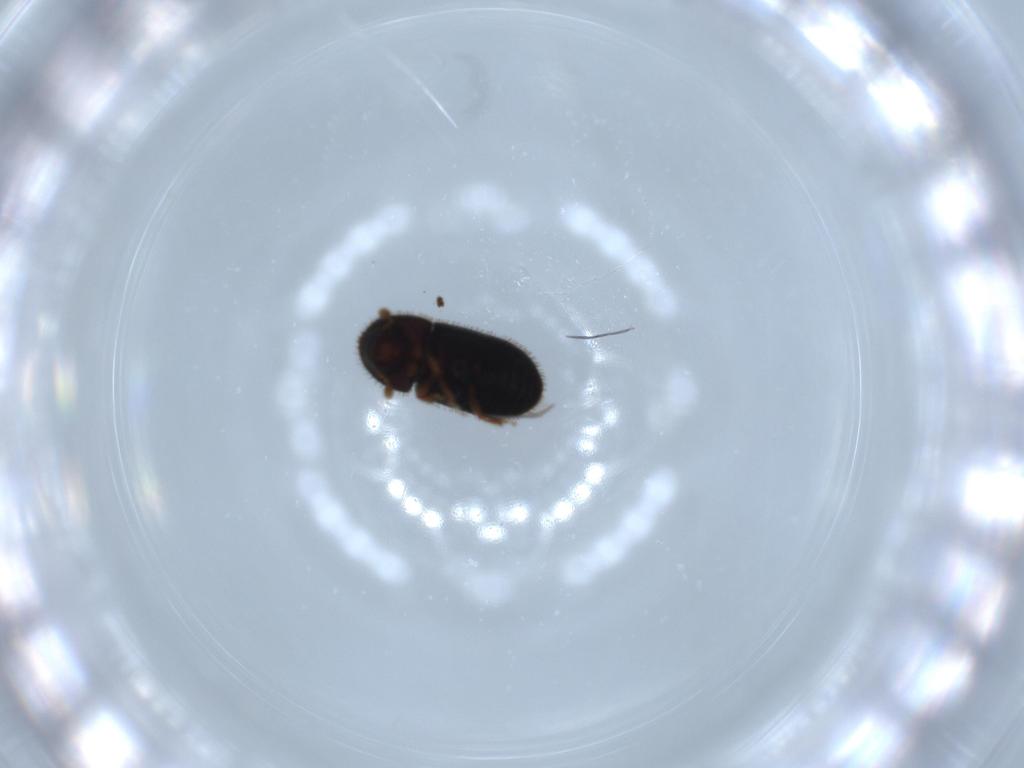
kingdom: Animalia
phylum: Arthropoda
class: Insecta
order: Coleoptera
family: Curculionidae
